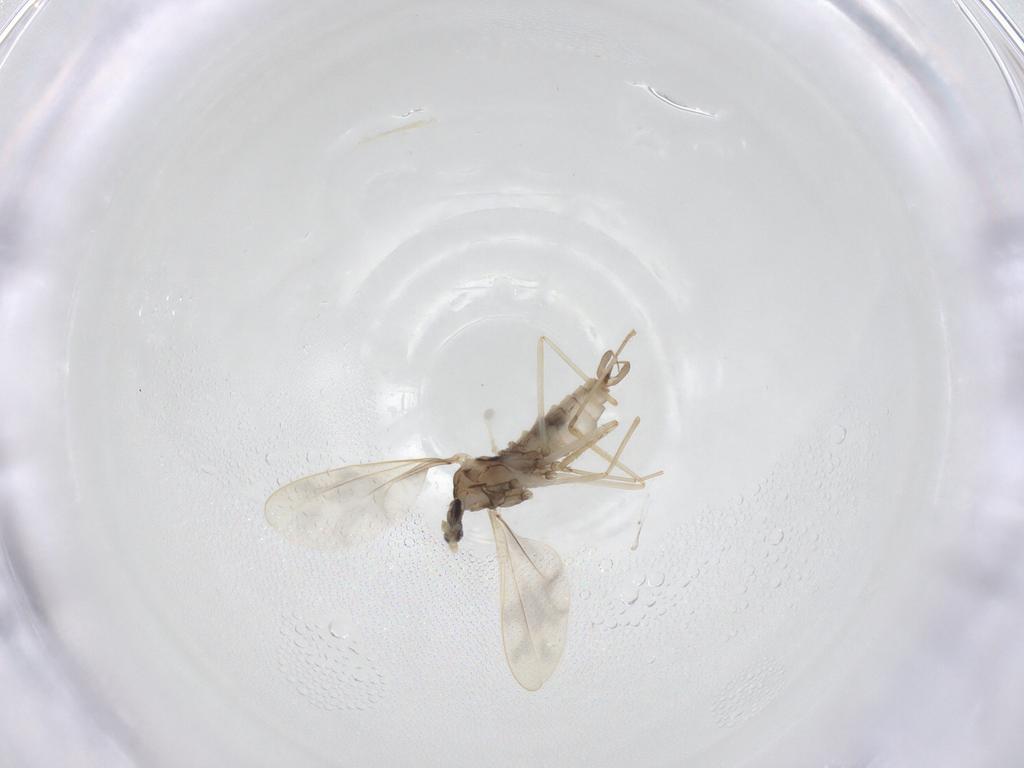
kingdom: Animalia
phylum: Arthropoda
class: Insecta
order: Diptera
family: Cecidomyiidae
